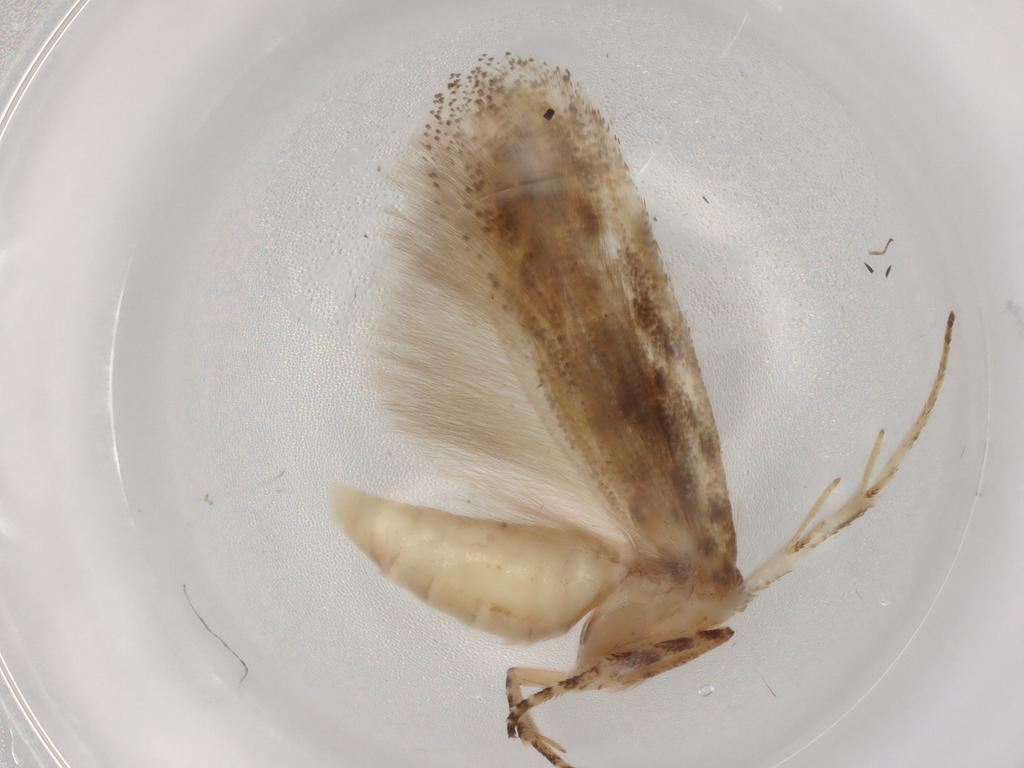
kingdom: Animalia
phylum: Arthropoda
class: Insecta
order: Lepidoptera
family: Gelechiidae
